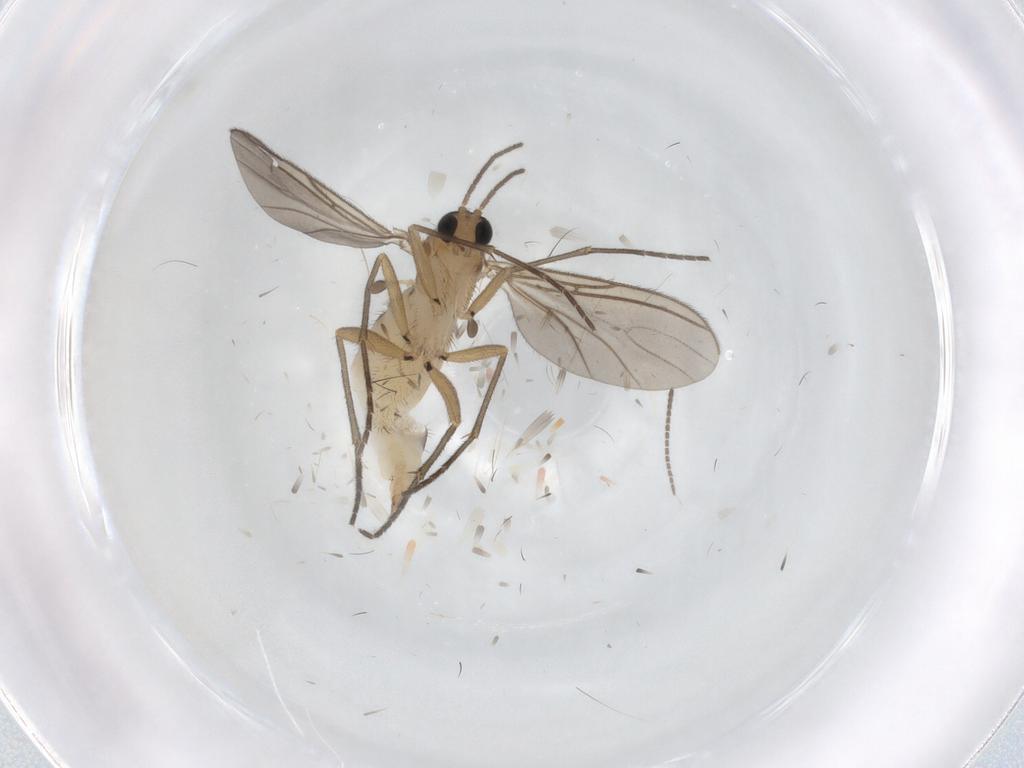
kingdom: Animalia
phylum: Arthropoda
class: Insecta
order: Diptera
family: Sciaridae
